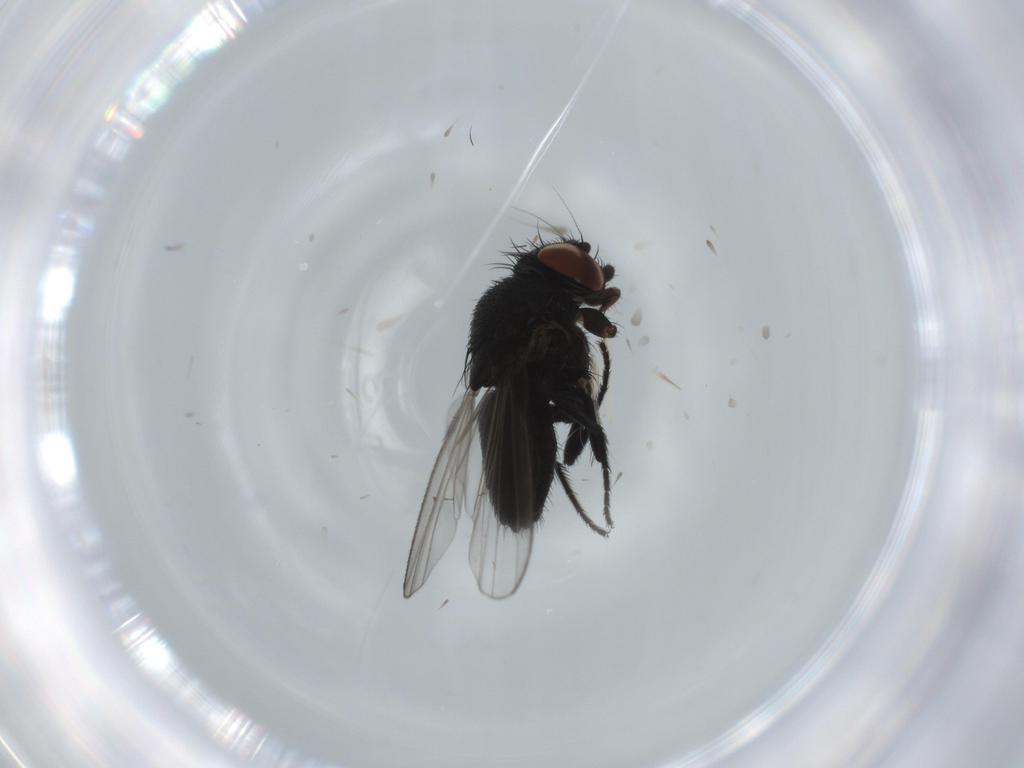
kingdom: Animalia
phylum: Arthropoda
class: Insecta
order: Diptera
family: Milichiidae
